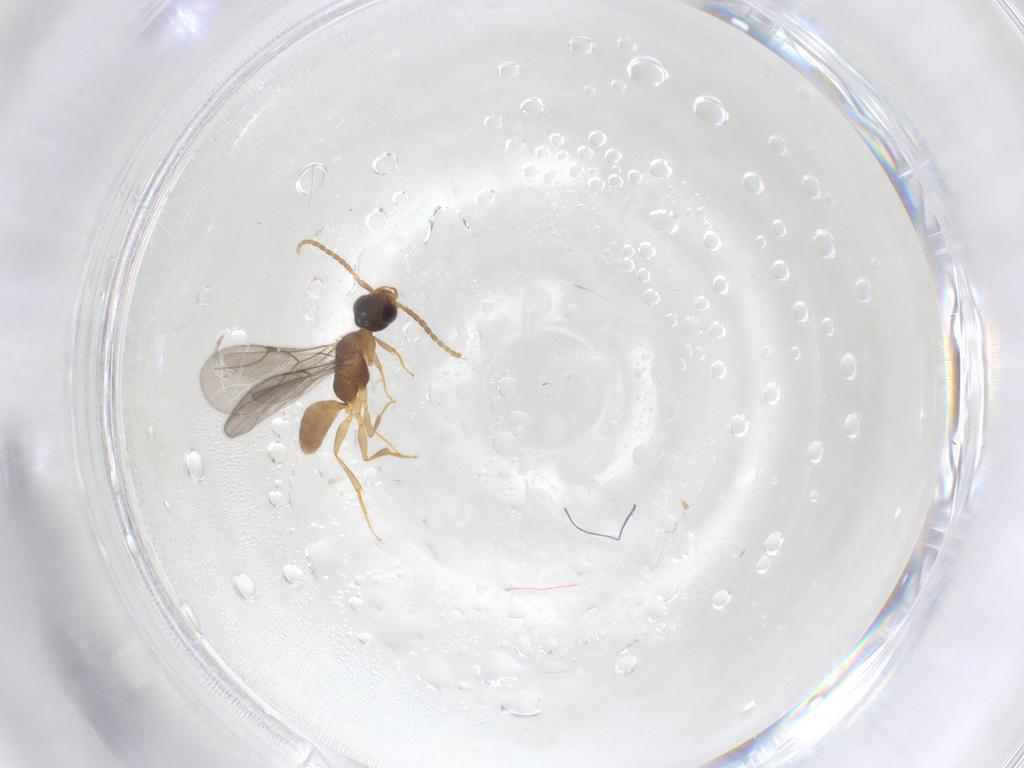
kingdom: Animalia
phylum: Arthropoda
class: Insecta
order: Hymenoptera
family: Bethylidae
